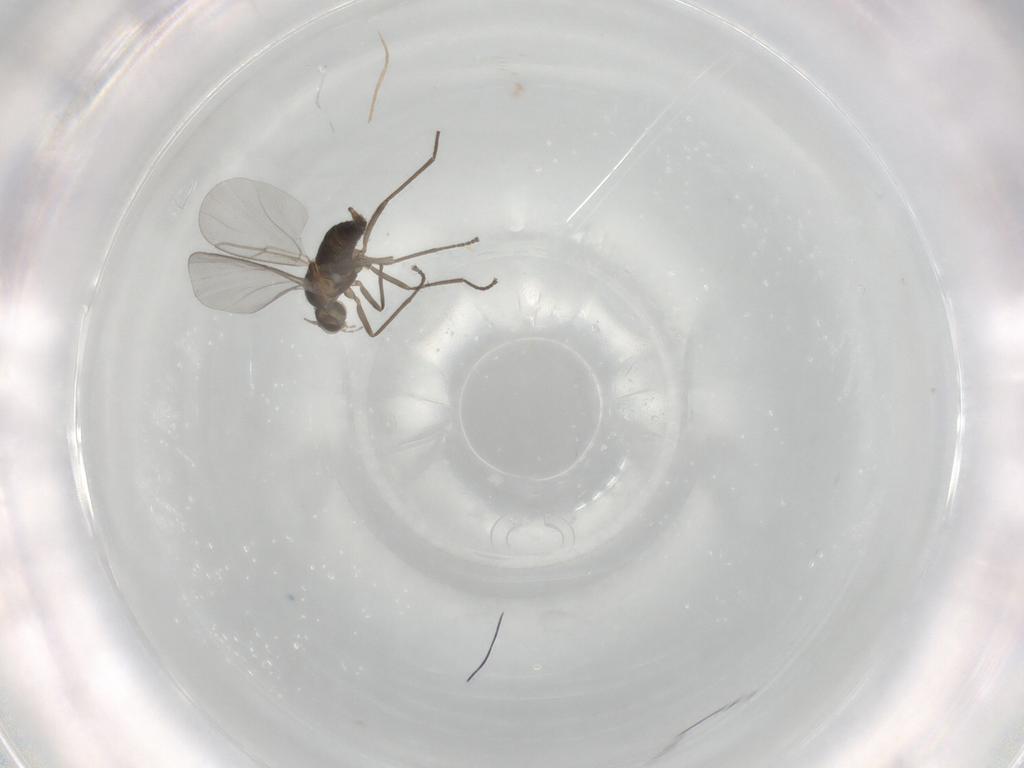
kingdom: Animalia
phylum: Arthropoda
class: Insecta
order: Diptera
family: Cecidomyiidae
